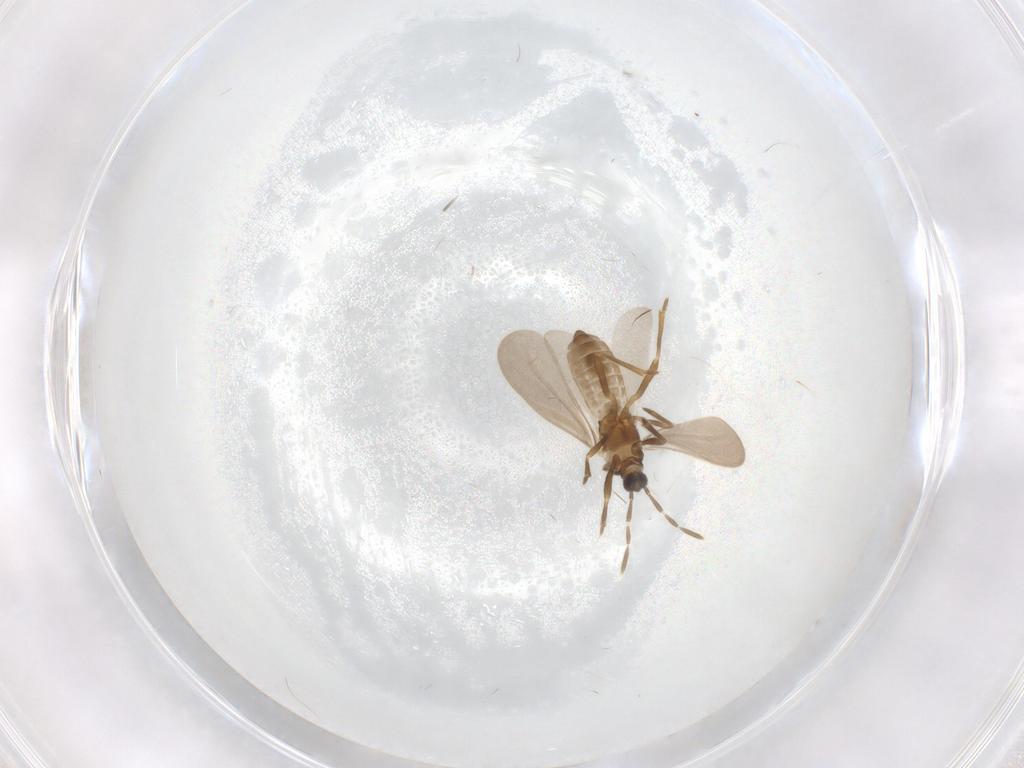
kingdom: Animalia
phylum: Arthropoda
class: Insecta
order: Hemiptera
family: Enicocephalidae
